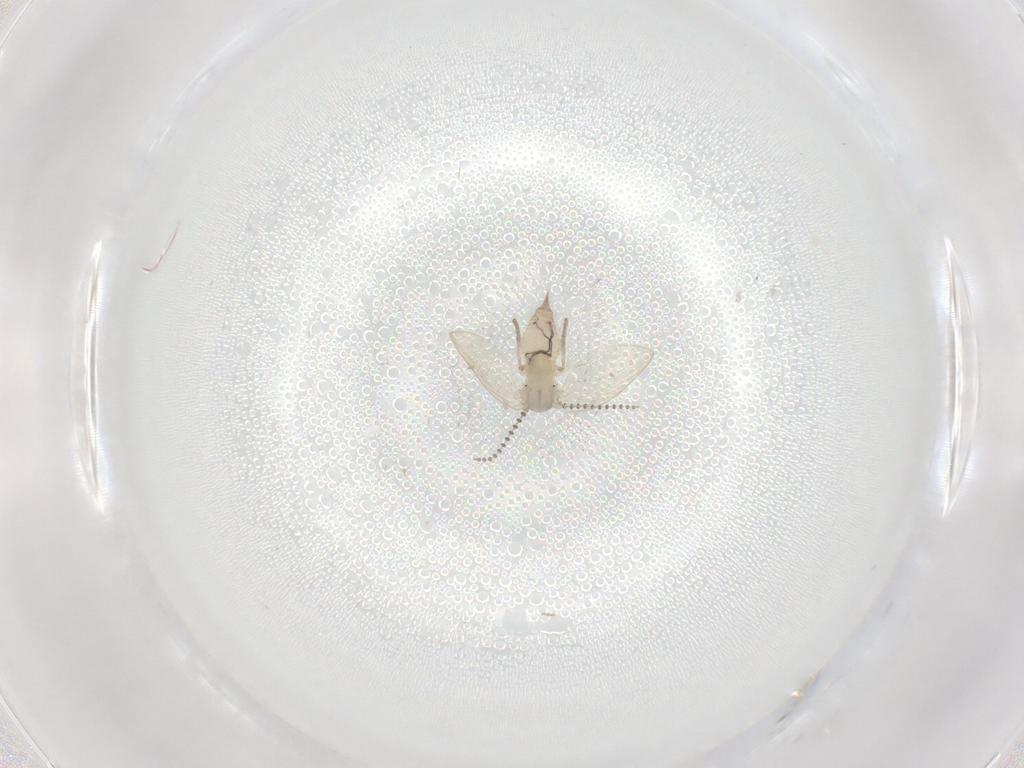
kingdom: Animalia
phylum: Arthropoda
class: Insecta
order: Diptera
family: Psychodidae
